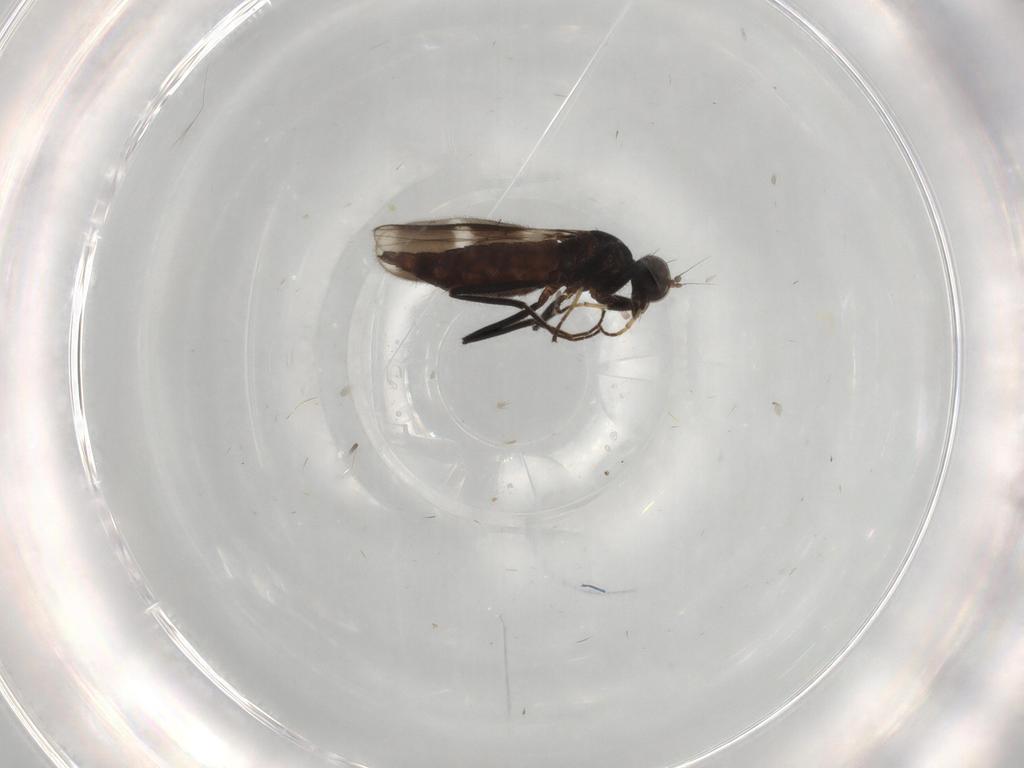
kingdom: Animalia
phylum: Arthropoda
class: Insecta
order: Diptera
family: Hybotidae
